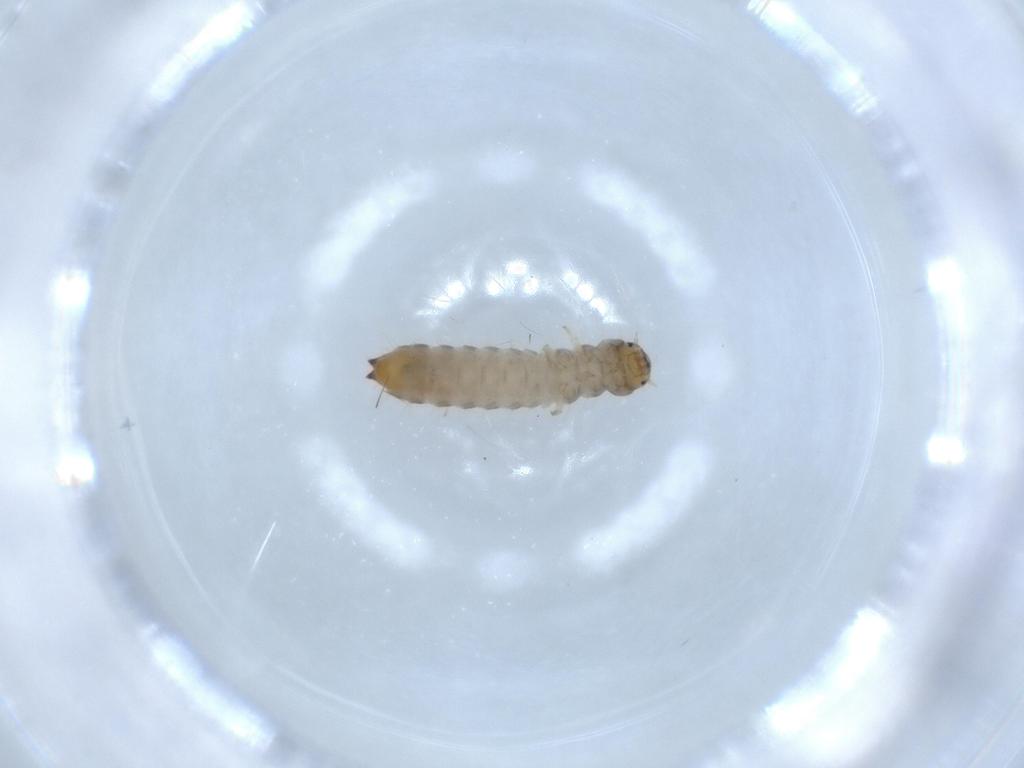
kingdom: Animalia
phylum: Arthropoda
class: Insecta
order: Coleoptera
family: Mycetophagidae
